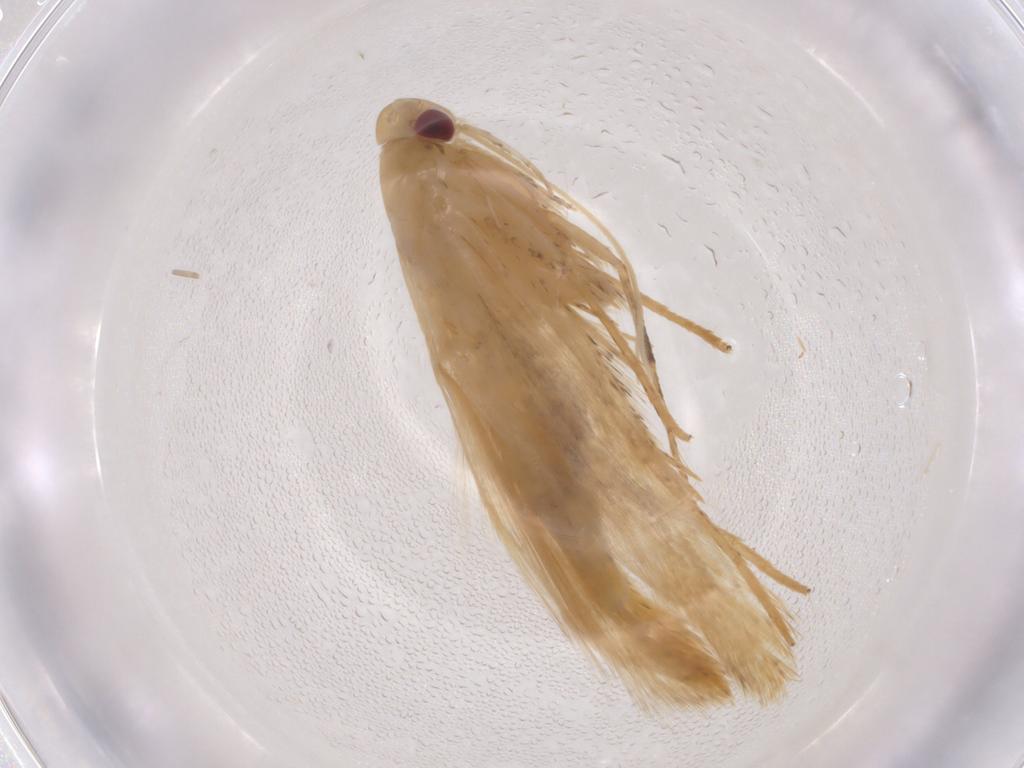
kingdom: Animalia
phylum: Arthropoda
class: Insecta
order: Lepidoptera
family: Gelechiidae
